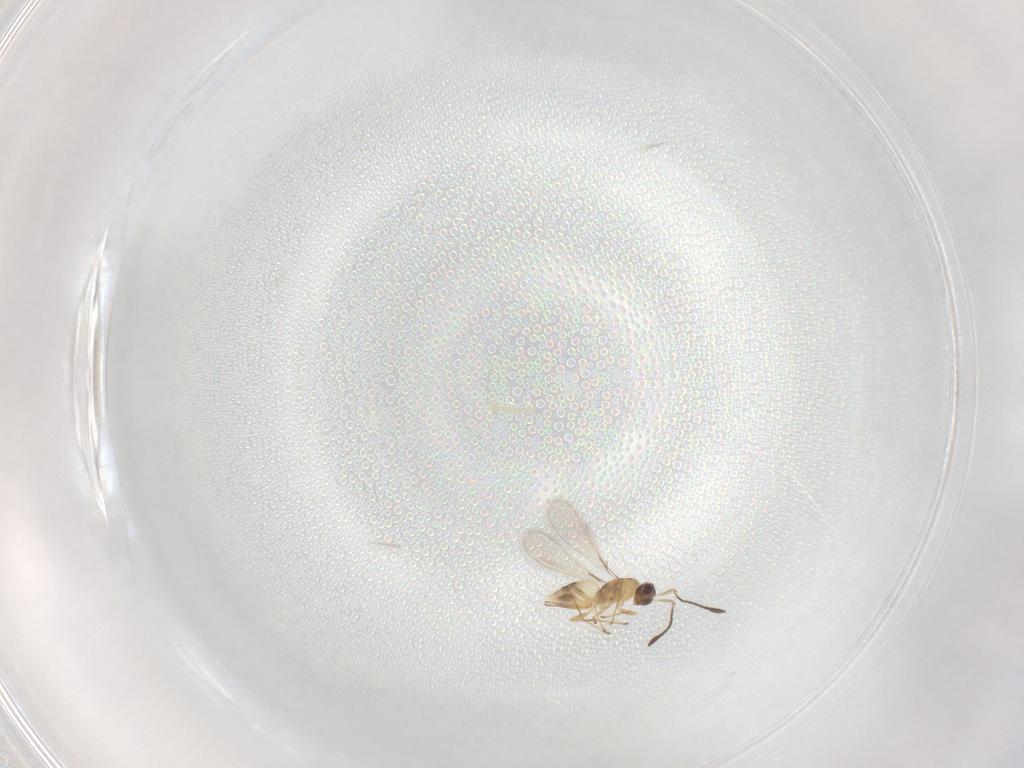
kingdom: Animalia
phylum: Arthropoda
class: Insecta
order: Hymenoptera
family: Mymaridae
